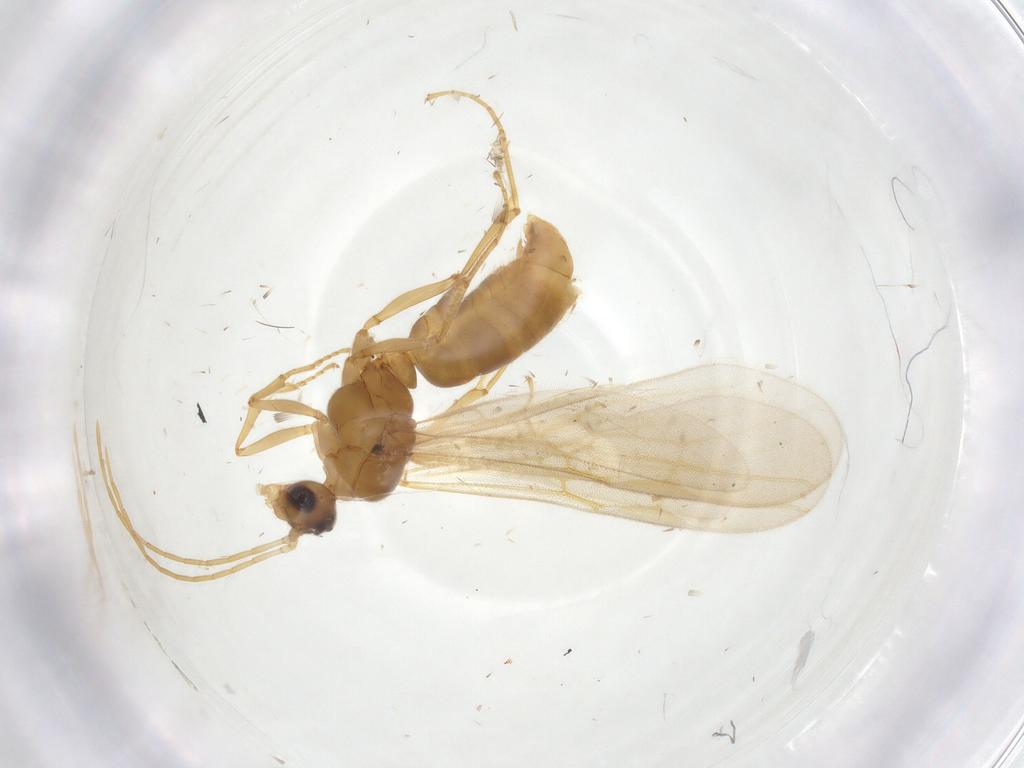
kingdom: Animalia
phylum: Arthropoda
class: Insecta
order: Hymenoptera
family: Formicidae
